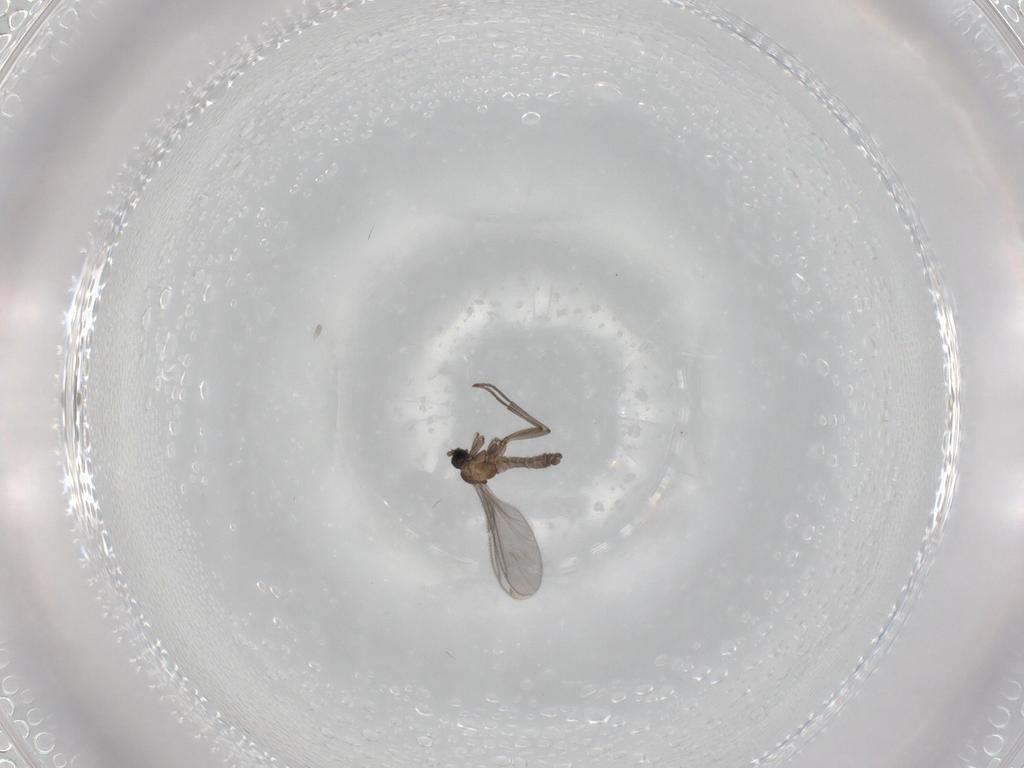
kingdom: Animalia
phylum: Arthropoda
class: Insecta
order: Diptera
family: Sciaridae
